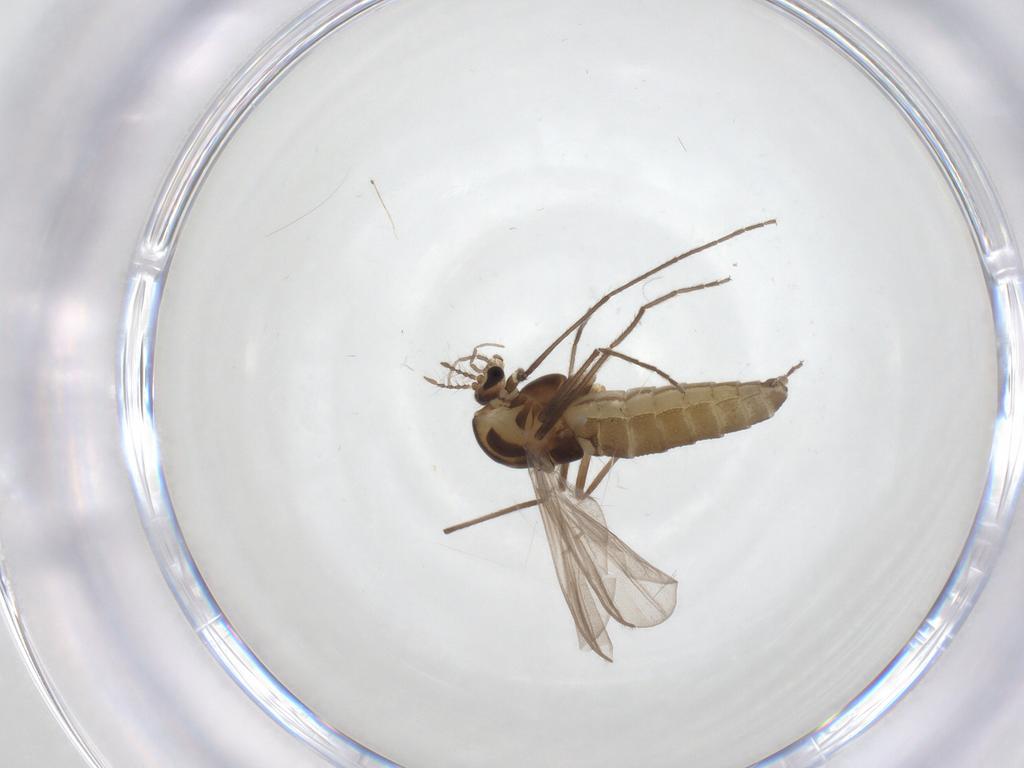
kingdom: Animalia
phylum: Arthropoda
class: Insecta
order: Diptera
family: Chironomidae
